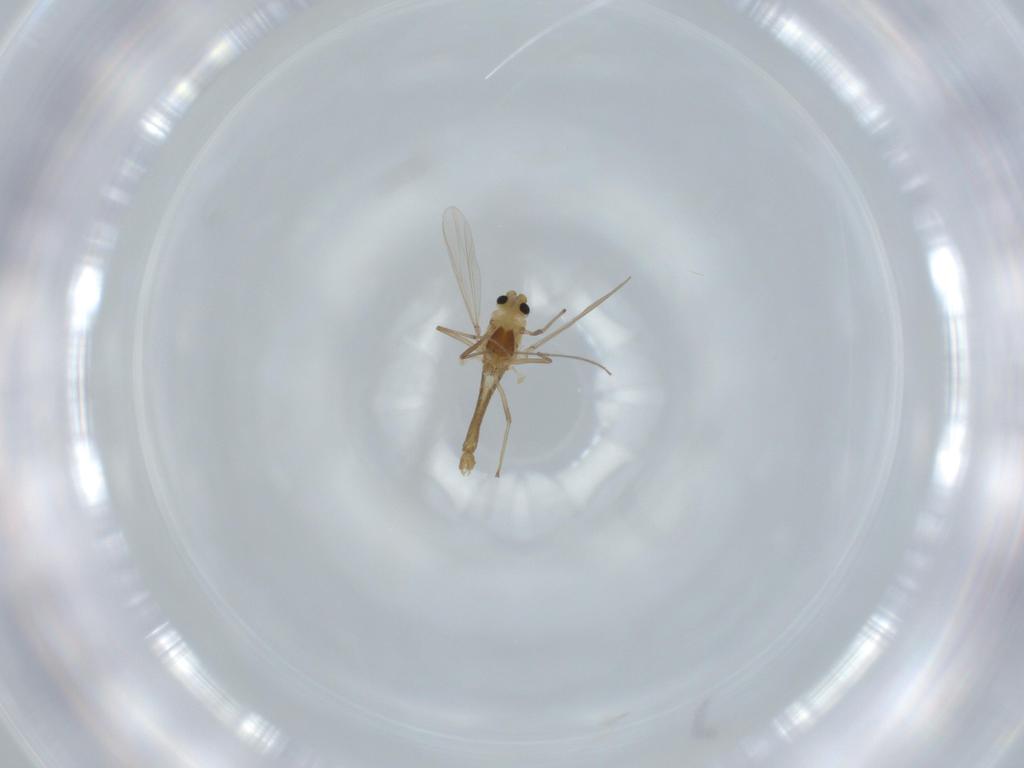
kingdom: Animalia
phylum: Arthropoda
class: Insecta
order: Diptera
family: Chironomidae
